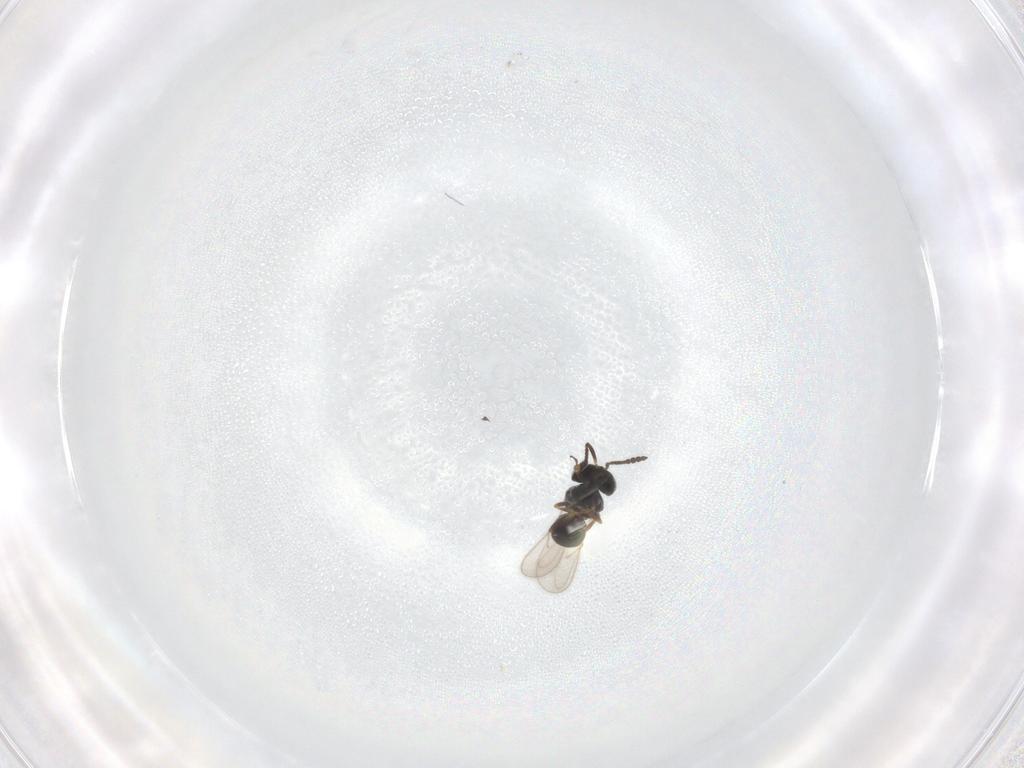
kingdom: Animalia
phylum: Arthropoda
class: Insecta
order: Hymenoptera
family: Scelionidae
